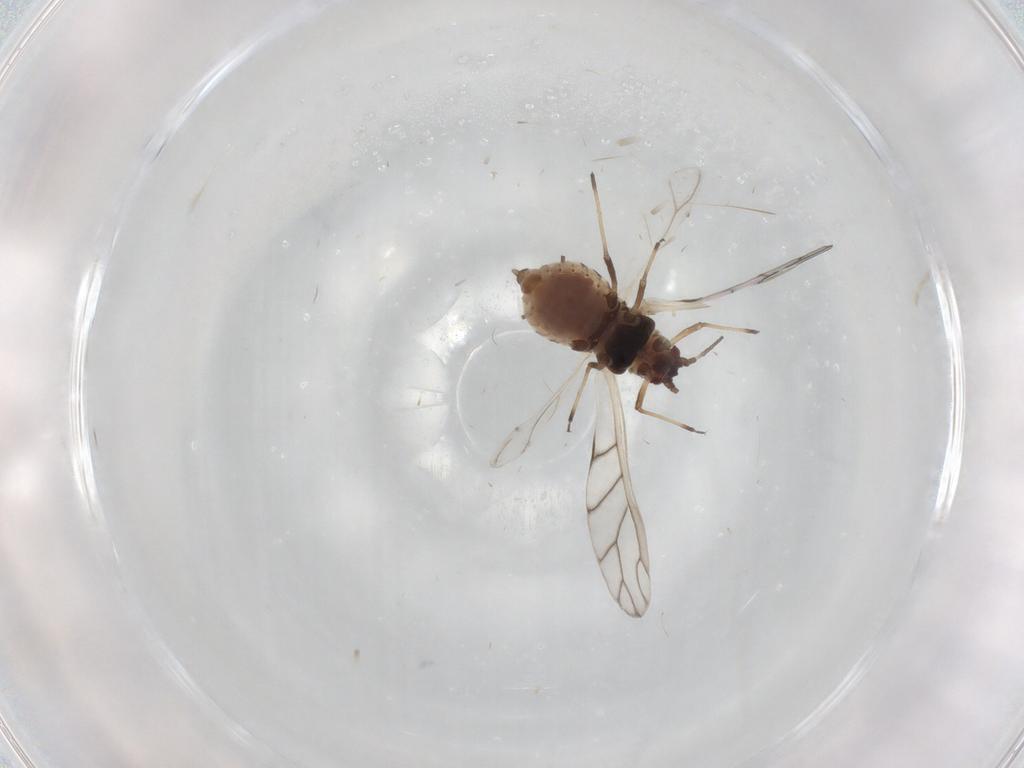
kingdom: Animalia
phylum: Arthropoda
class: Insecta
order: Hemiptera
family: Aphididae
